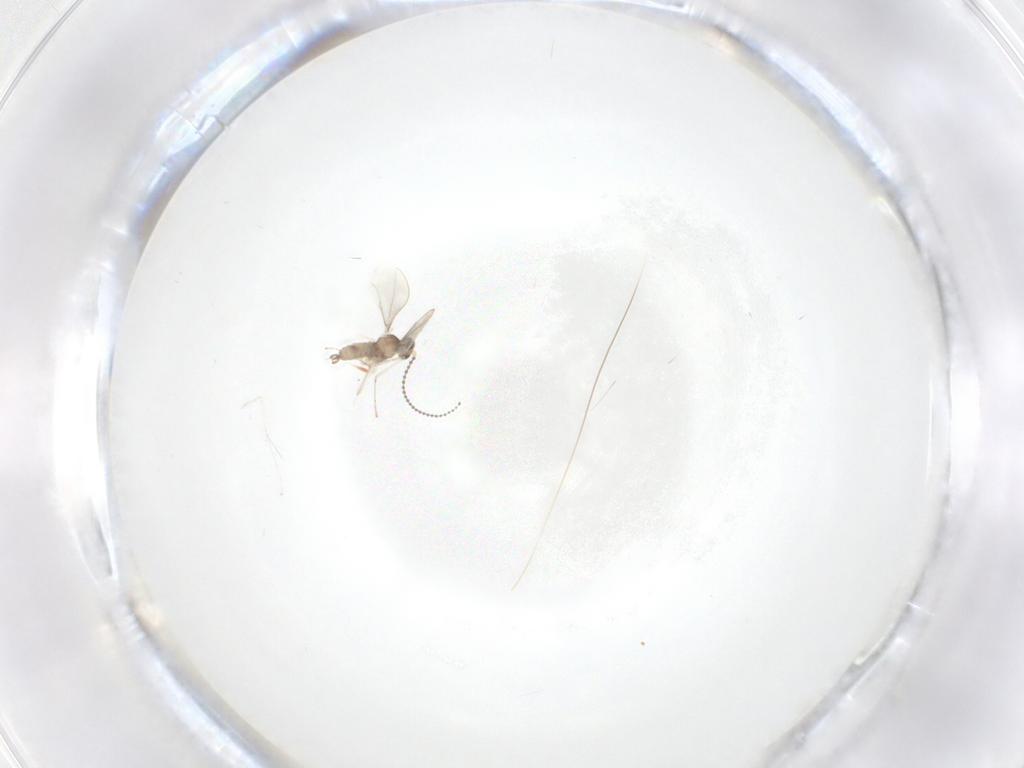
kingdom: Animalia
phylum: Arthropoda
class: Insecta
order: Diptera
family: Cecidomyiidae
